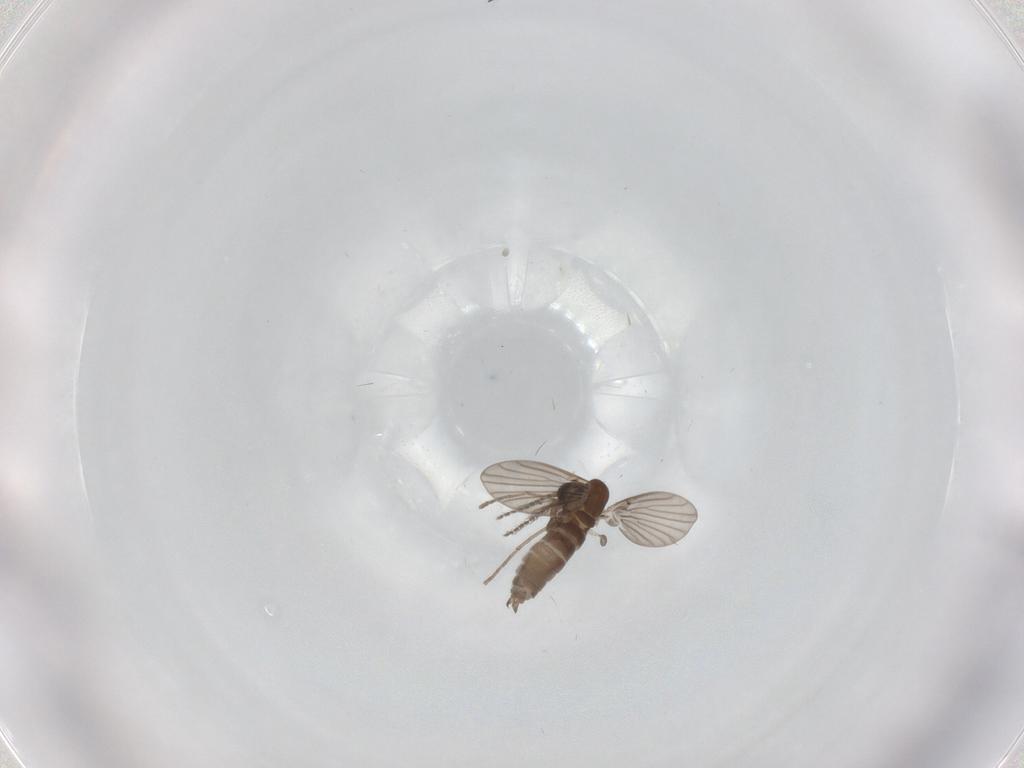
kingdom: Animalia
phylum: Arthropoda
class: Insecta
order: Diptera
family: Milichiidae
